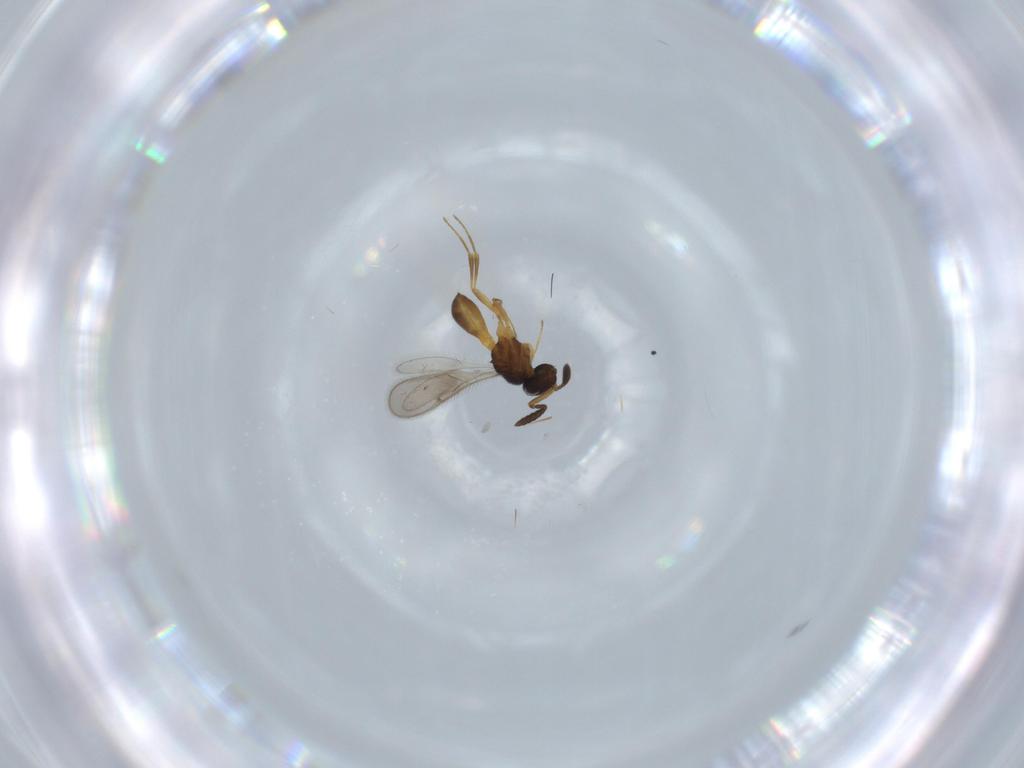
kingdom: Animalia
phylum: Arthropoda
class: Insecta
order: Hymenoptera
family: Scelionidae
